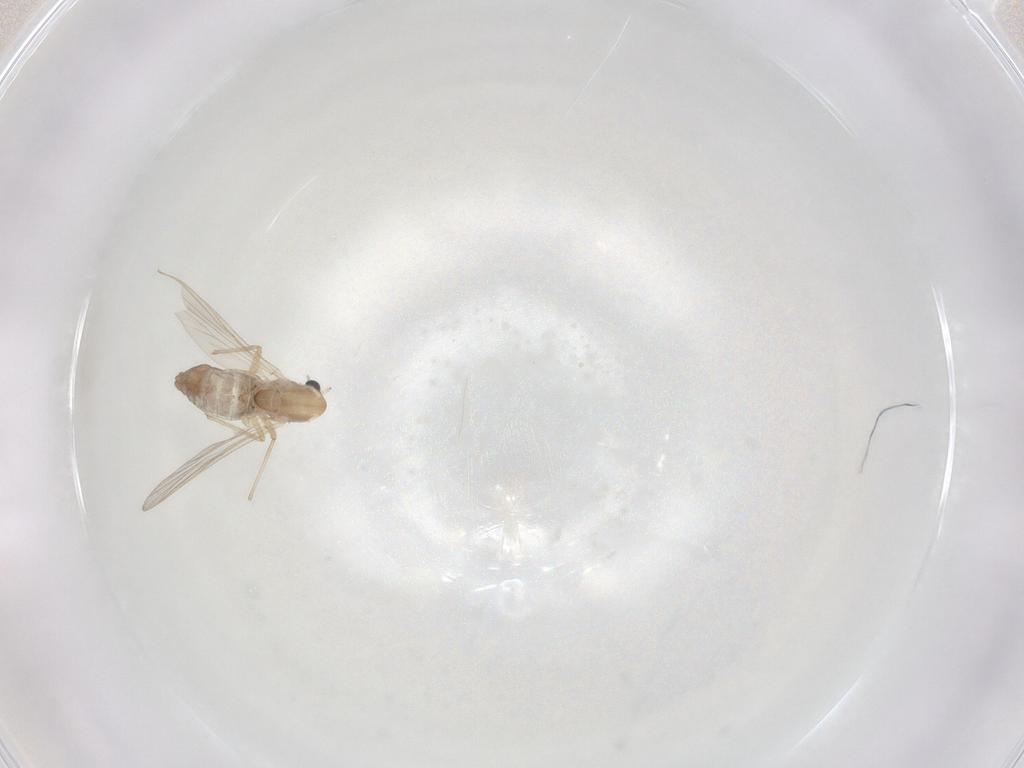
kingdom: Animalia
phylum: Arthropoda
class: Insecta
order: Diptera
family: Chironomidae
